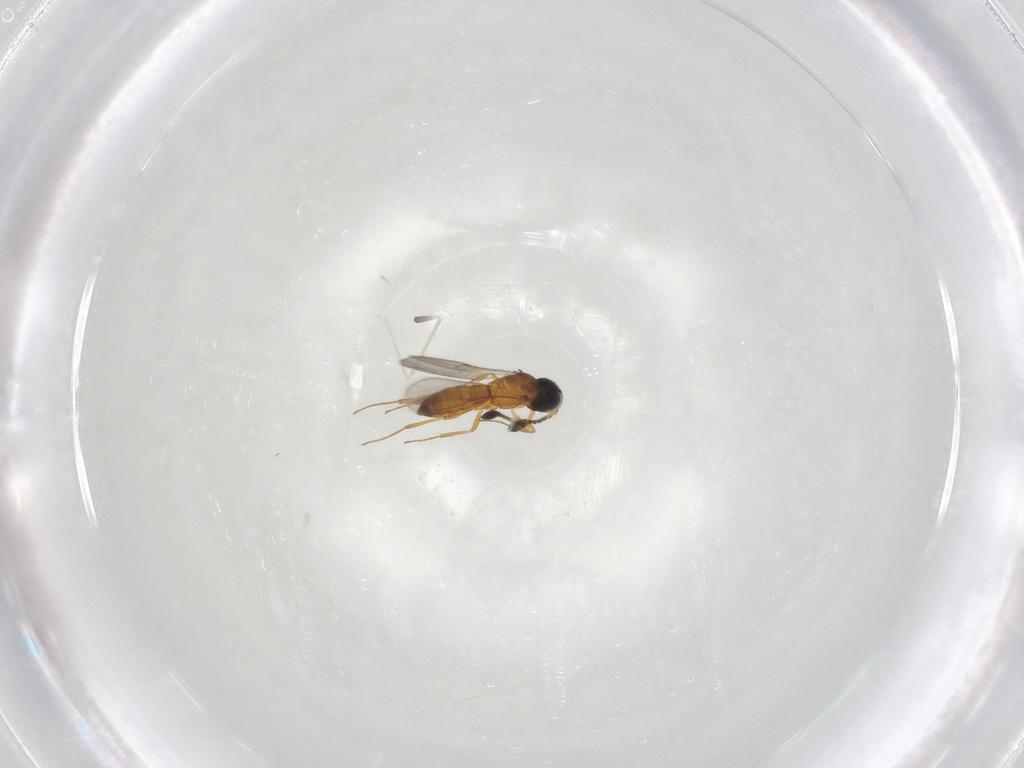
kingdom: Animalia
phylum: Arthropoda
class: Insecta
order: Hymenoptera
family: Scelionidae
